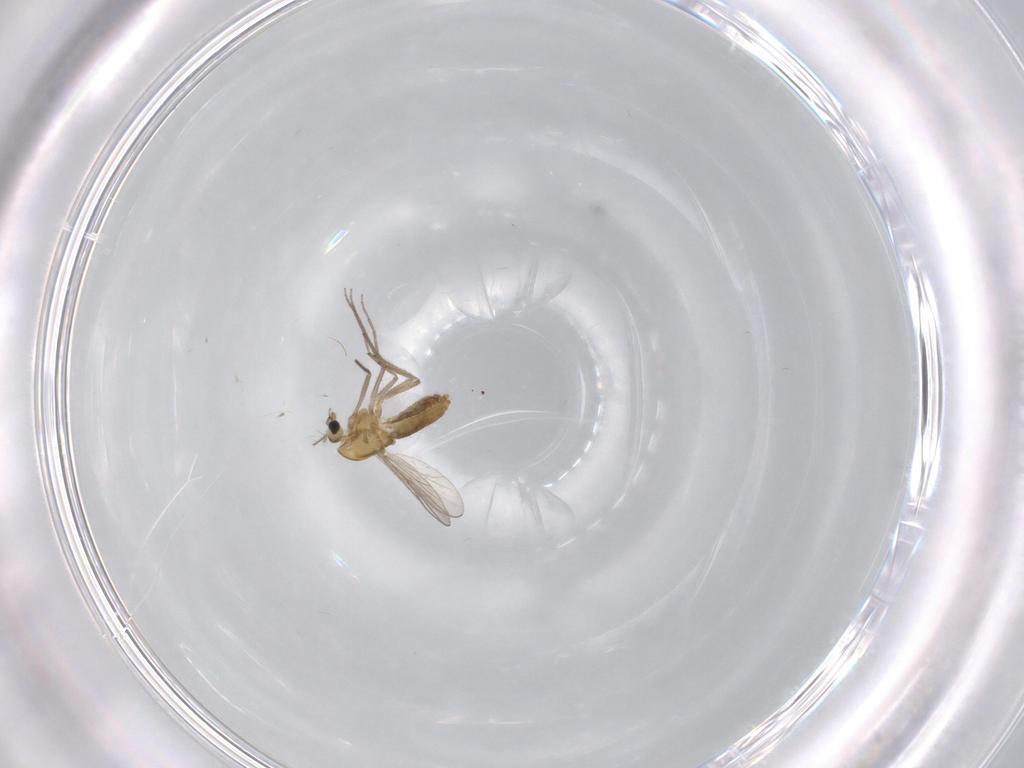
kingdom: Animalia
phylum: Arthropoda
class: Insecta
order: Diptera
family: Chironomidae
